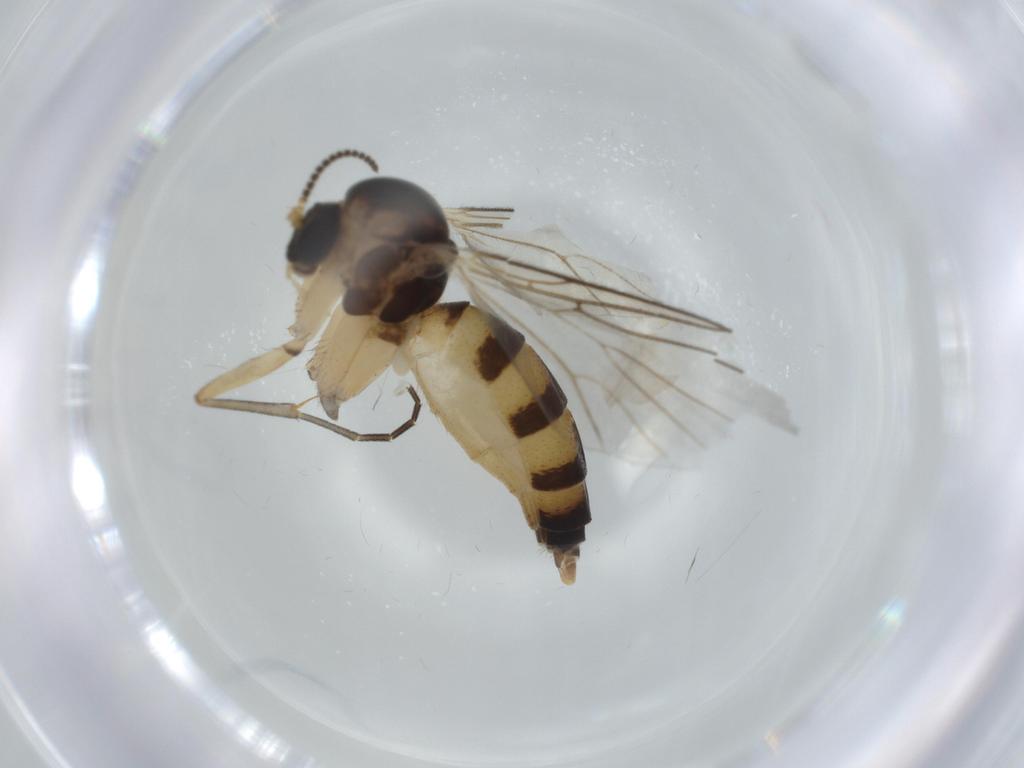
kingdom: Animalia
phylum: Arthropoda
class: Insecta
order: Diptera
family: Mycetophilidae
